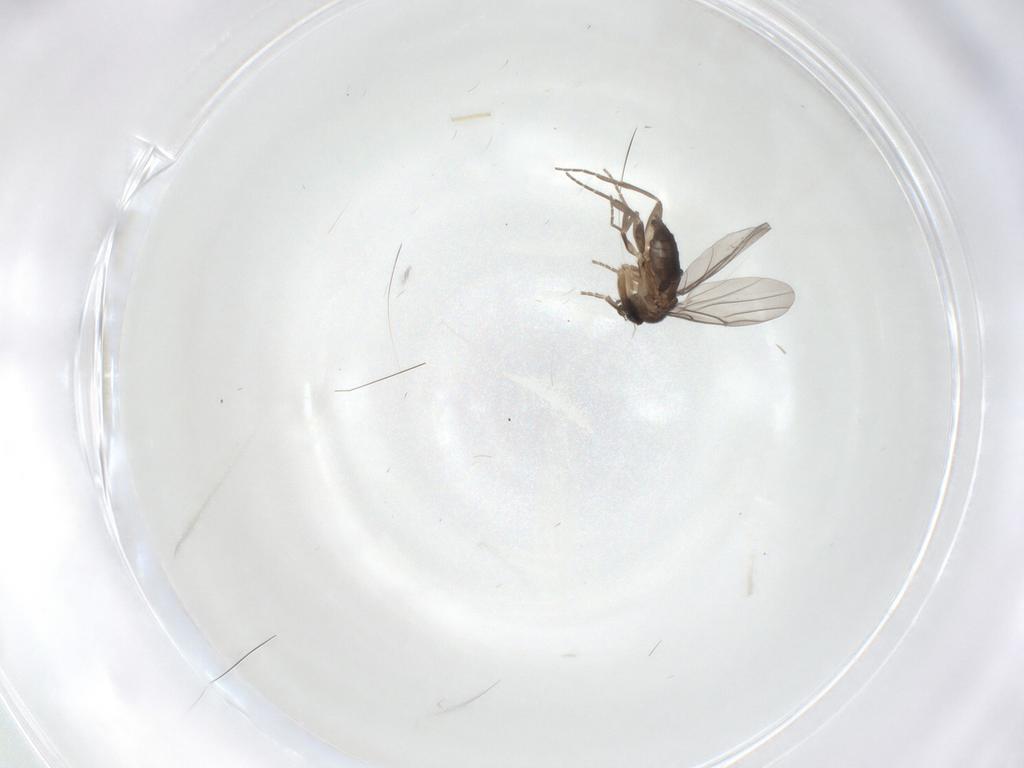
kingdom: Animalia
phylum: Arthropoda
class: Insecta
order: Diptera
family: Phoridae
